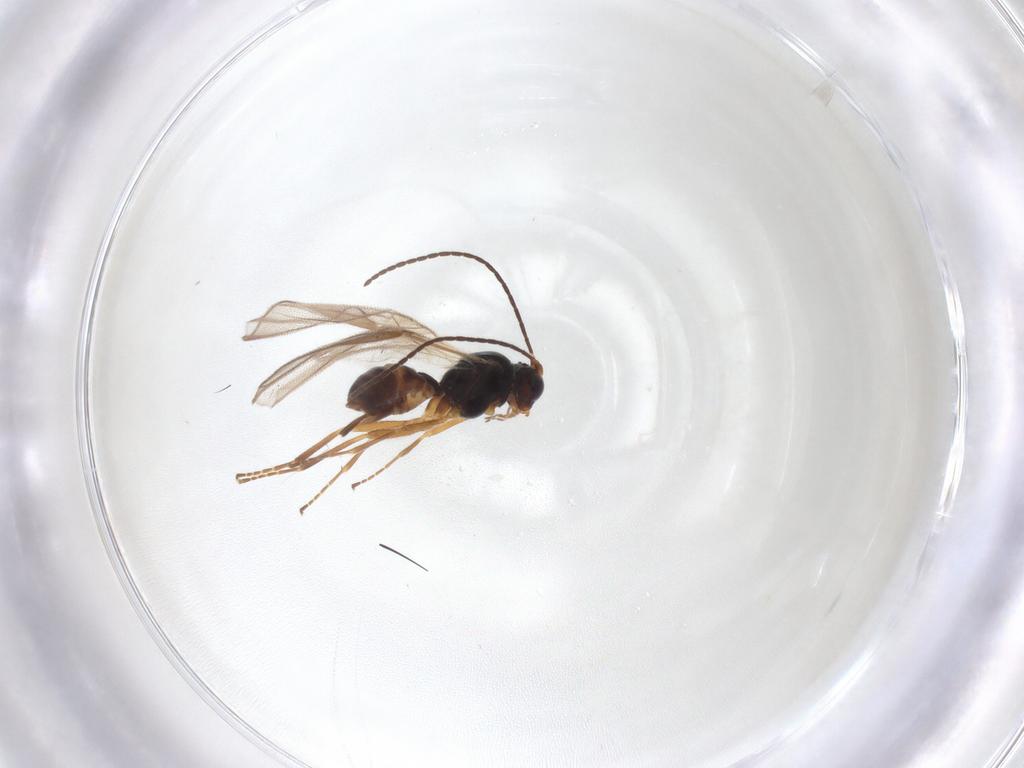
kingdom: Animalia
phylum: Arthropoda
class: Insecta
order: Hymenoptera
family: Braconidae
